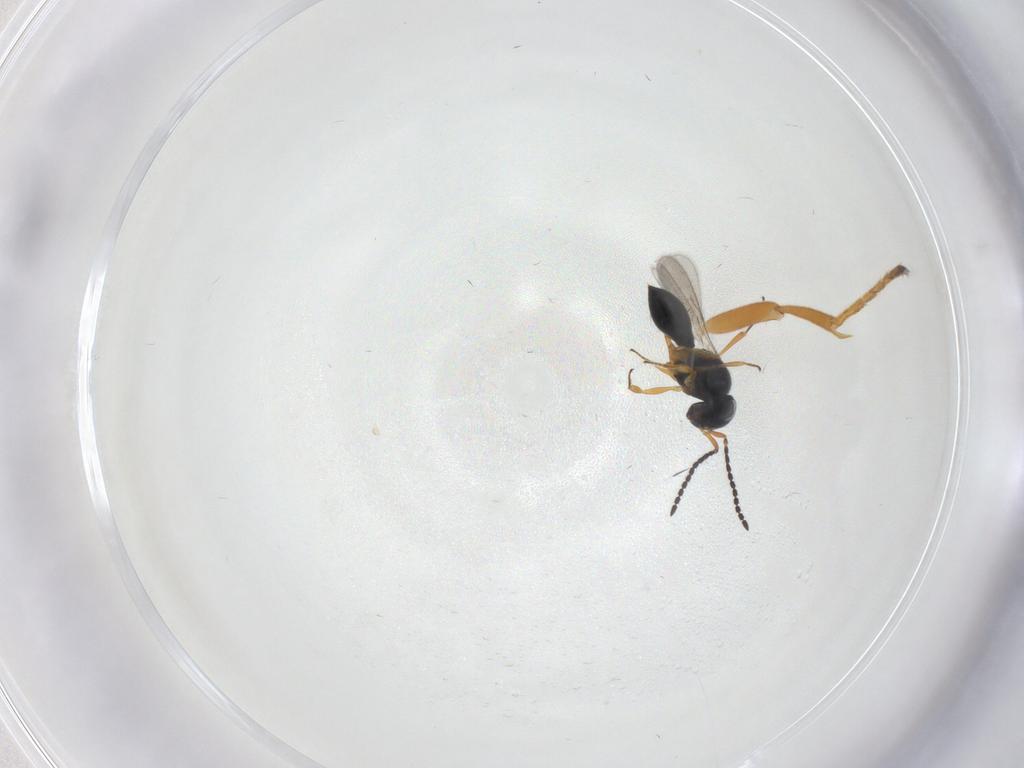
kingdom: Animalia
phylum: Arthropoda
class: Insecta
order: Hymenoptera
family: Scelionidae
